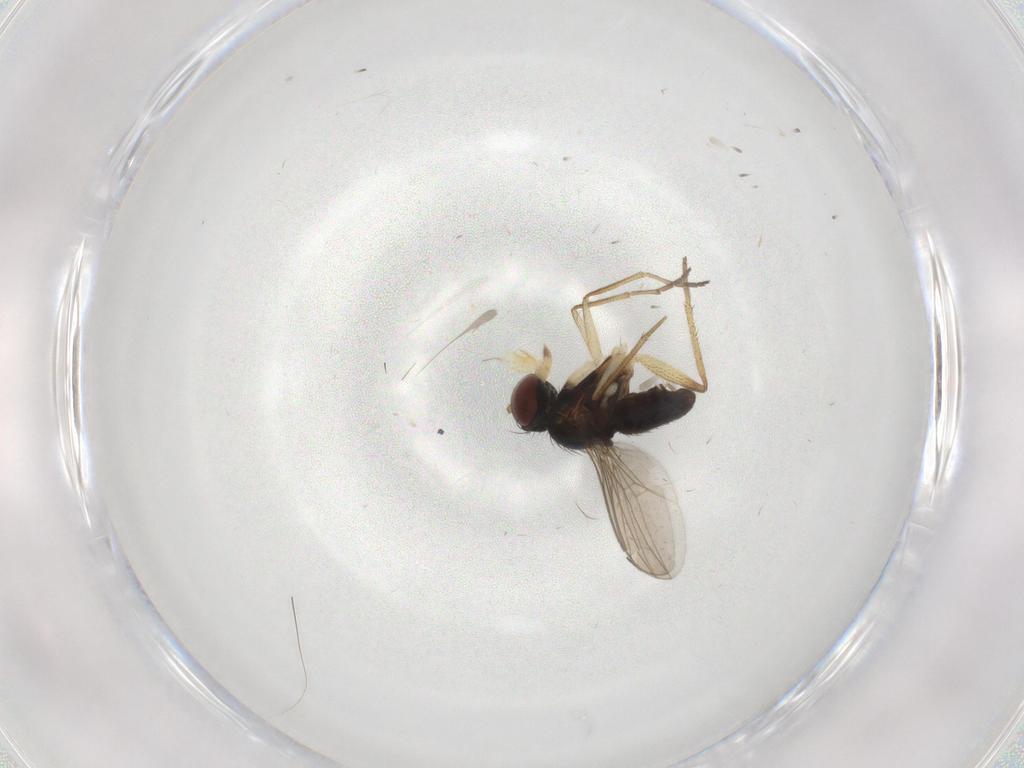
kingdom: Animalia
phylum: Arthropoda
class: Insecta
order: Diptera
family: Dolichopodidae
